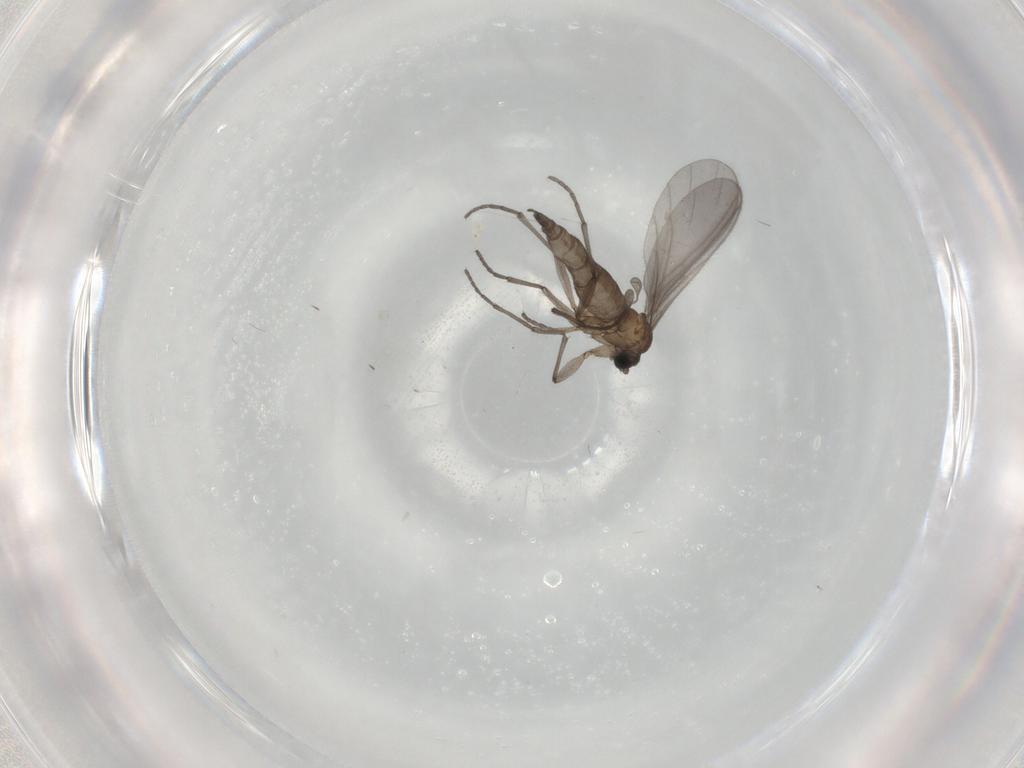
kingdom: Animalia
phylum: Arthropoda
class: Insecta
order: Diptera
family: Sciaridae
